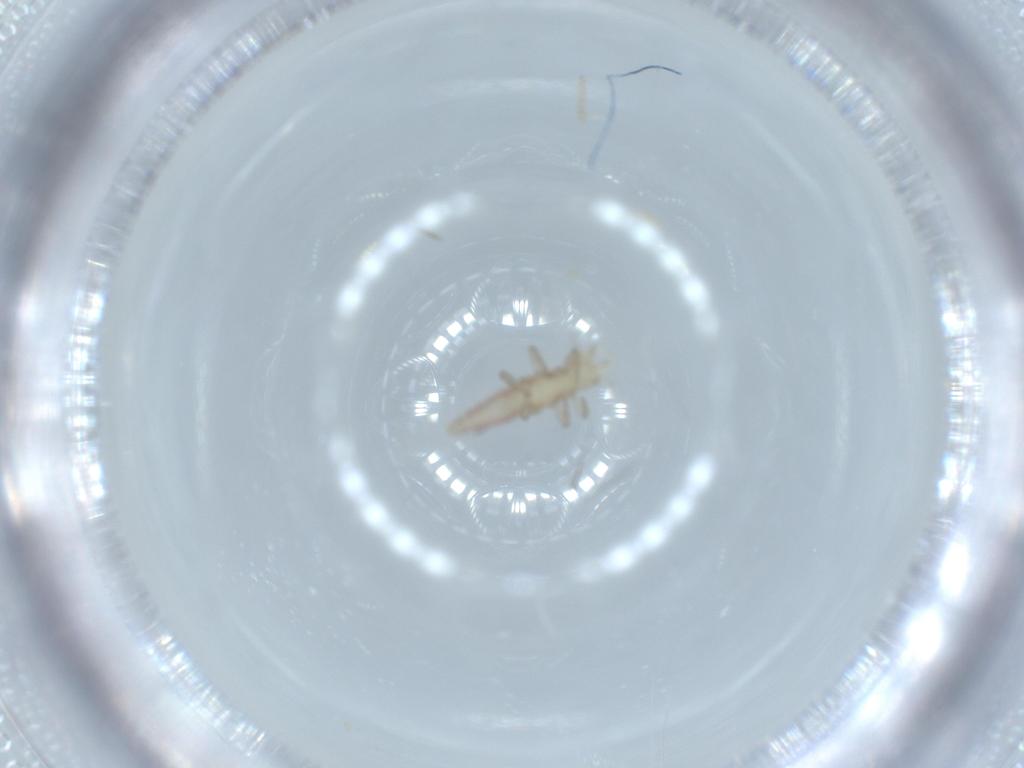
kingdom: Animalia
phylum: Arthropoda
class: Insecta
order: Neuroptera
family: Hemerobiidae
